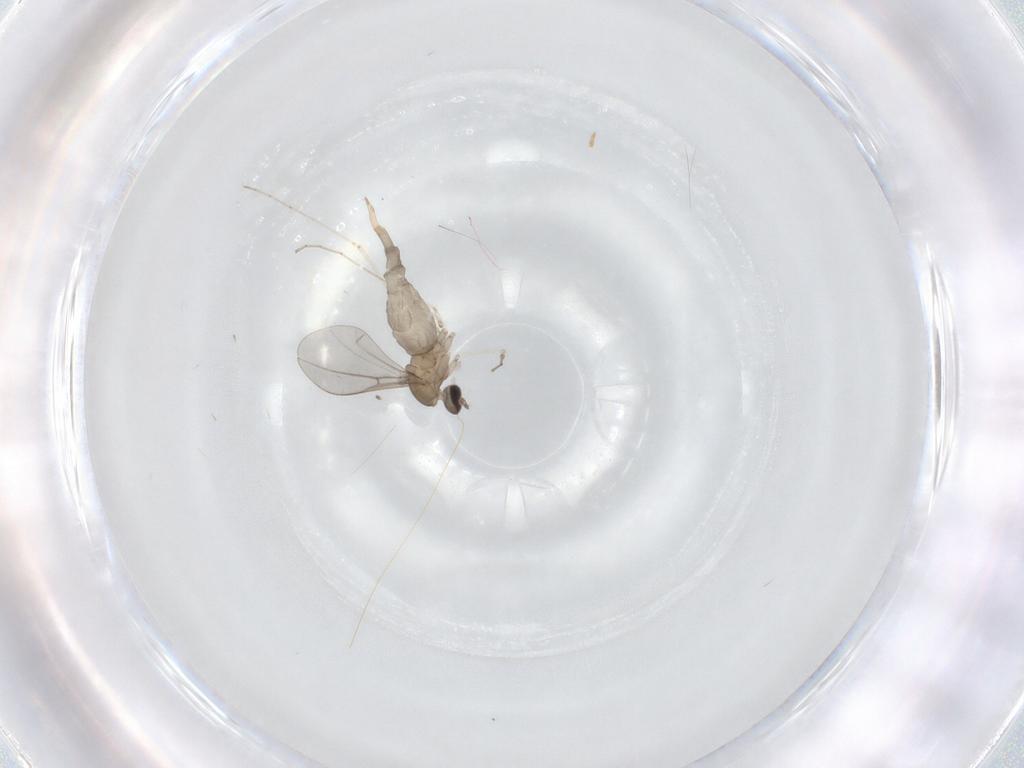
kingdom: Animalia
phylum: Arthropoda
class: Insecta
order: Diptera
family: Cecidomyiidae
